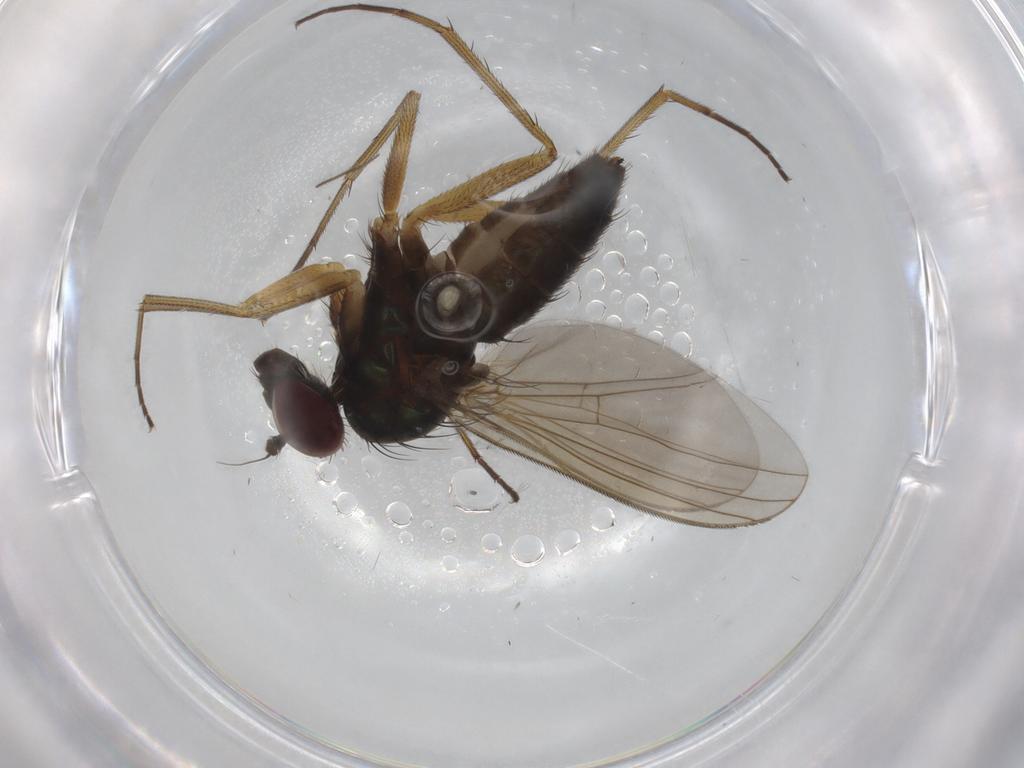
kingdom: Animalia
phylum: Arthropoda
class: Insecta
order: Diptera
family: Dolichopodidae
